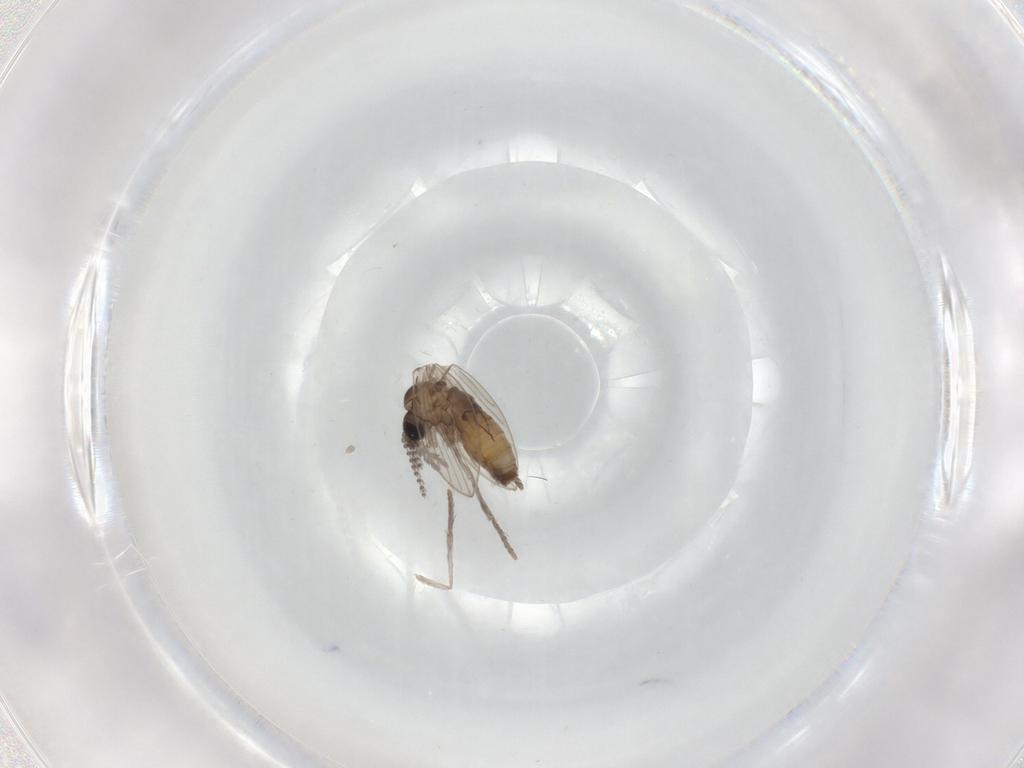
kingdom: Animalia
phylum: Arthropoda
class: Insecta
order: Diptera
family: Psychodidae
